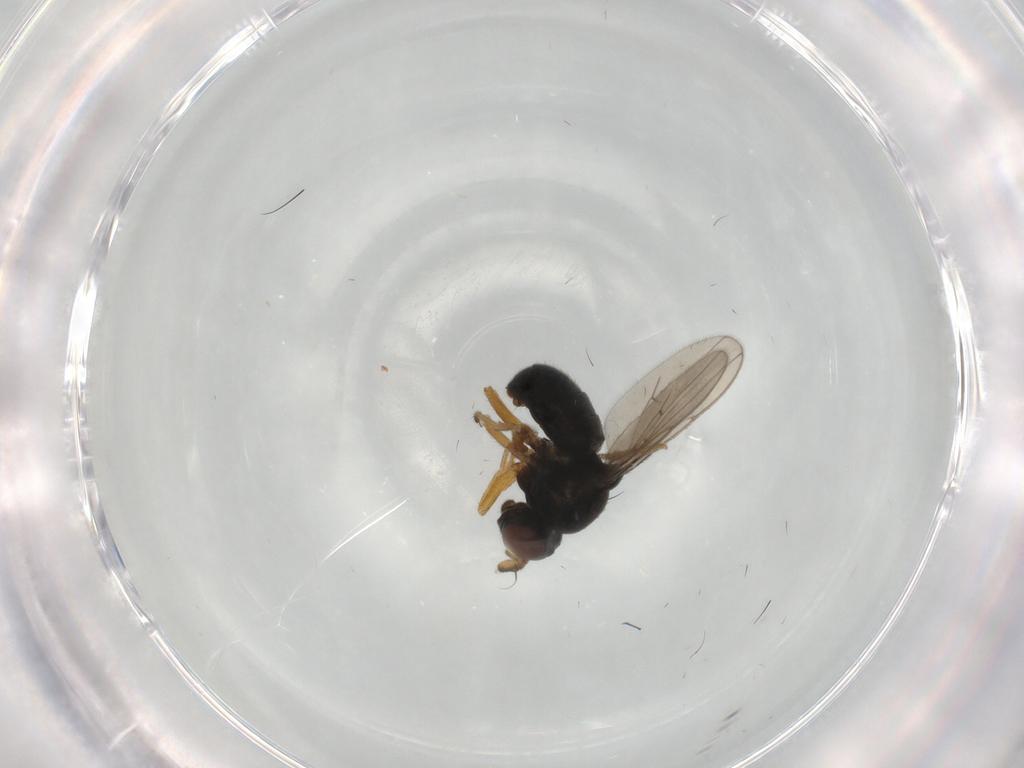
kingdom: Animalia
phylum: Arthropoda
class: Insecta
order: Diptera
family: Ephydridae
